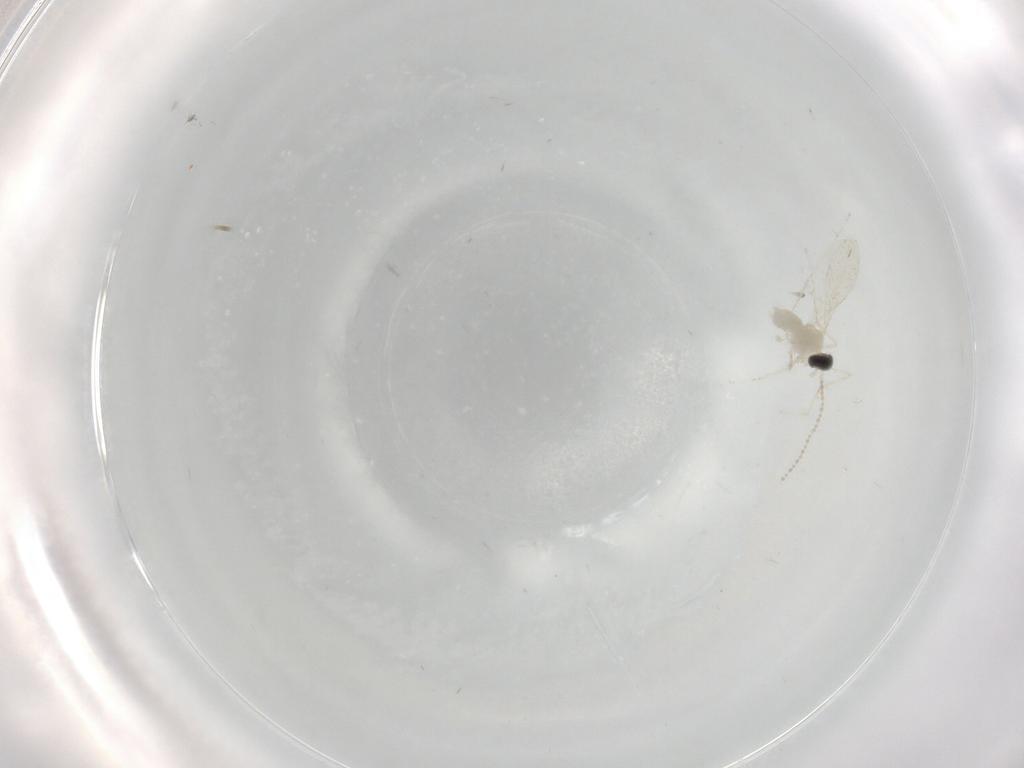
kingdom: Animalia
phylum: Arthropoda
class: Insecta
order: Diptera
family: Cecidomyiidae
